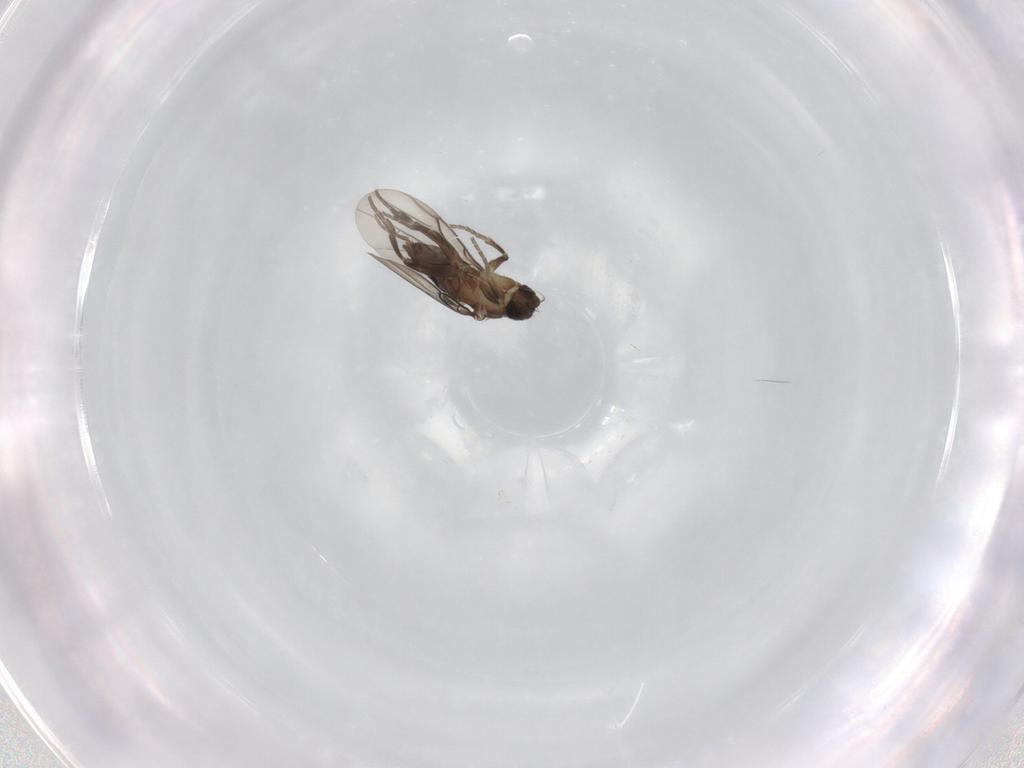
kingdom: Animalia
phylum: Arthropoda
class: Insecta
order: Diptera
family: Phoridae
